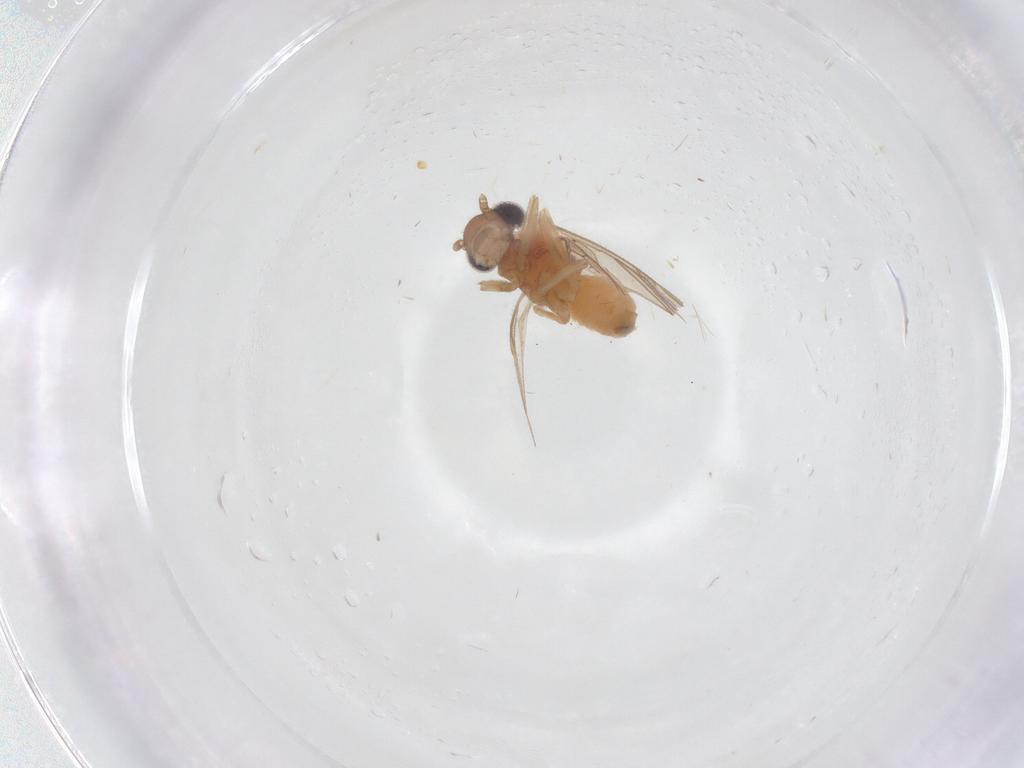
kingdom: Animalia
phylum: Arthropoda
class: Insecta
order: Psocodea
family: Epipsocidae
